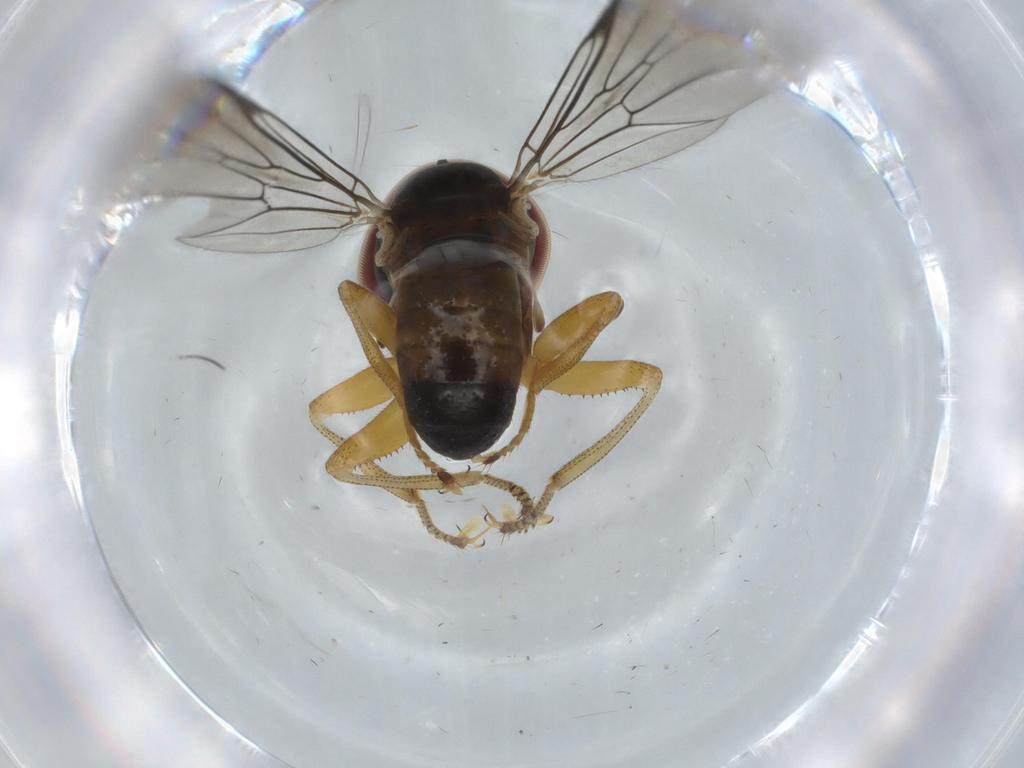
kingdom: Animalia
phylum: Arthropoda
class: Insecta
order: Diptera
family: Pipunculidae
